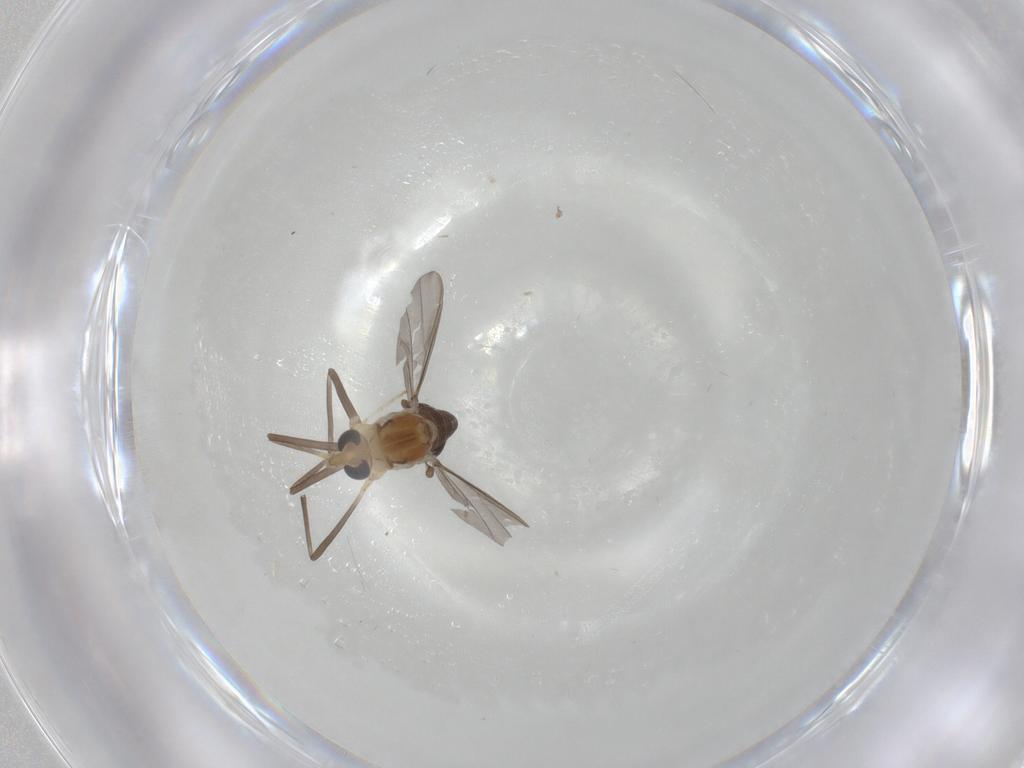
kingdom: Animalia
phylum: Arthropoda
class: Insecta
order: Diptera
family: Chironomidae
